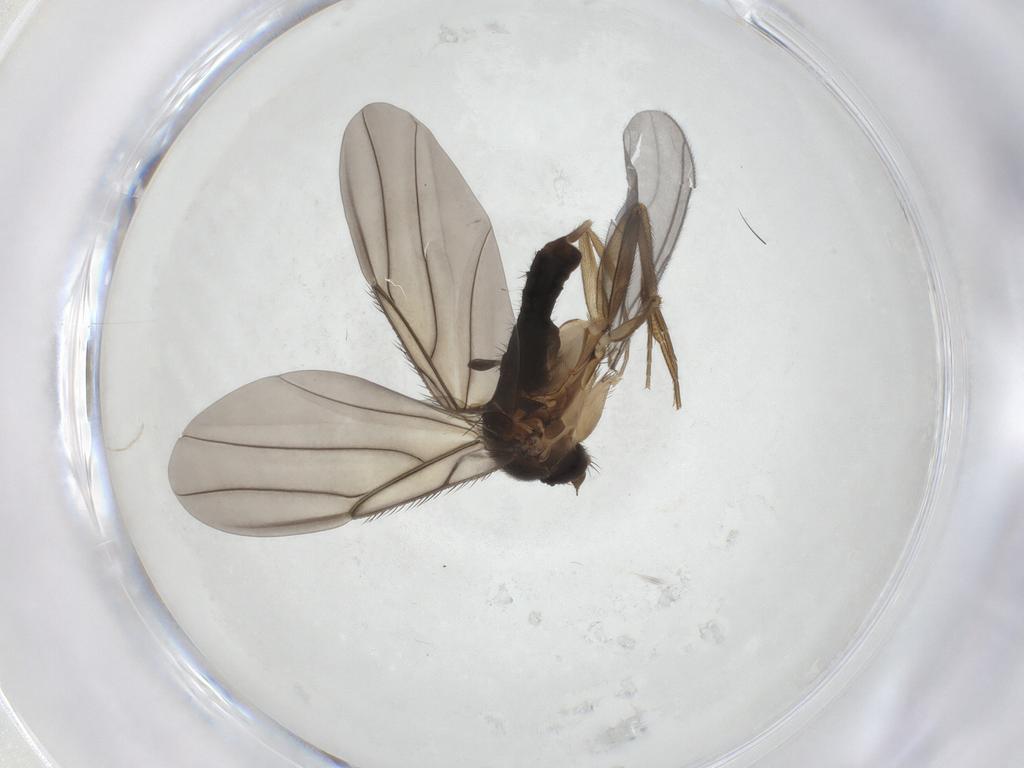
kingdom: Animalia
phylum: Arthropoda
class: Insecta
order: Diptera
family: Phoridae
